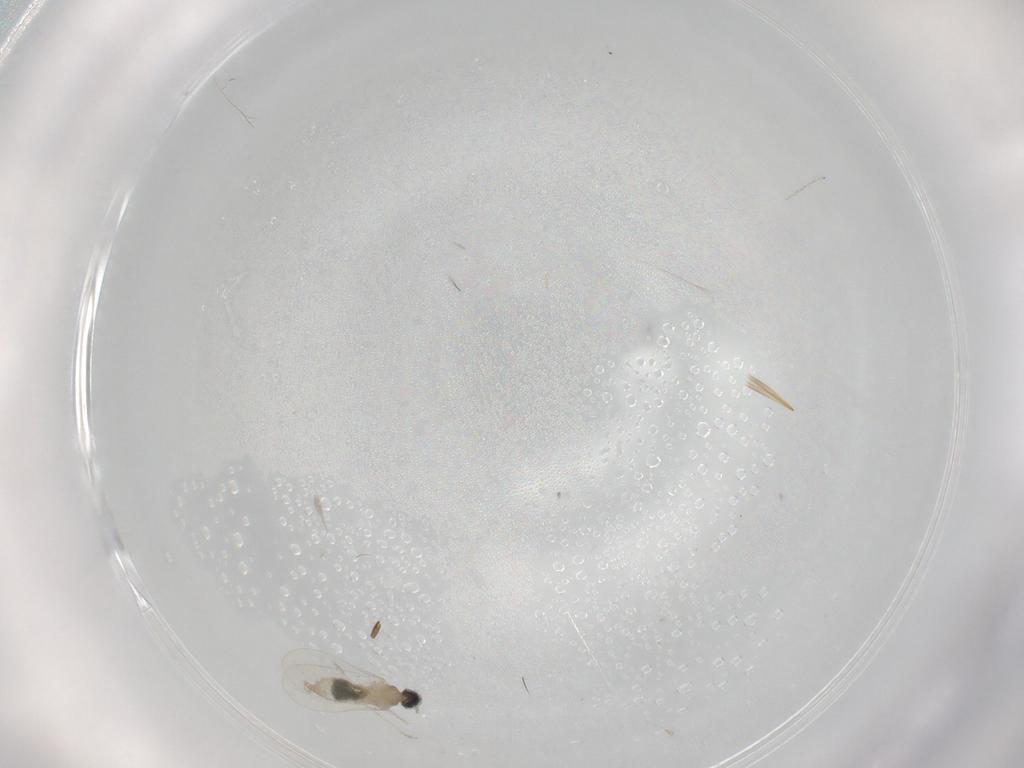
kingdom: Animalia
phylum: Arthropoda
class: Insecta
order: Diptera
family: Cecidomyiidae
